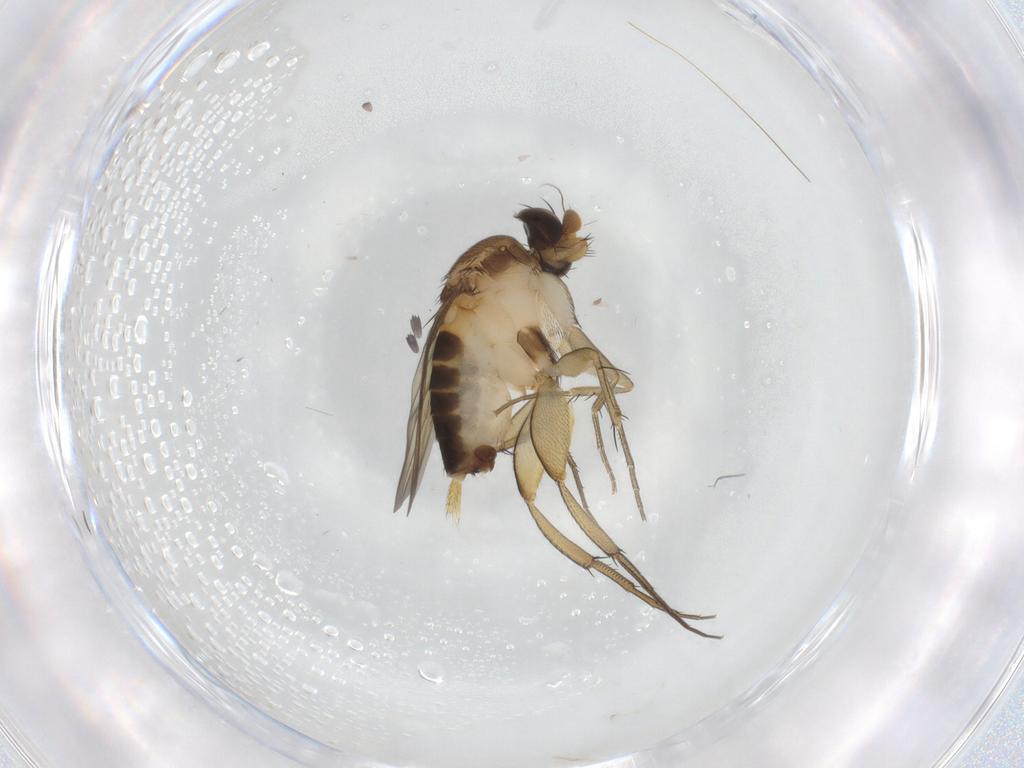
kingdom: Animalia
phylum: Arthropoda
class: Insecta
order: Diptera
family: Phoridae
